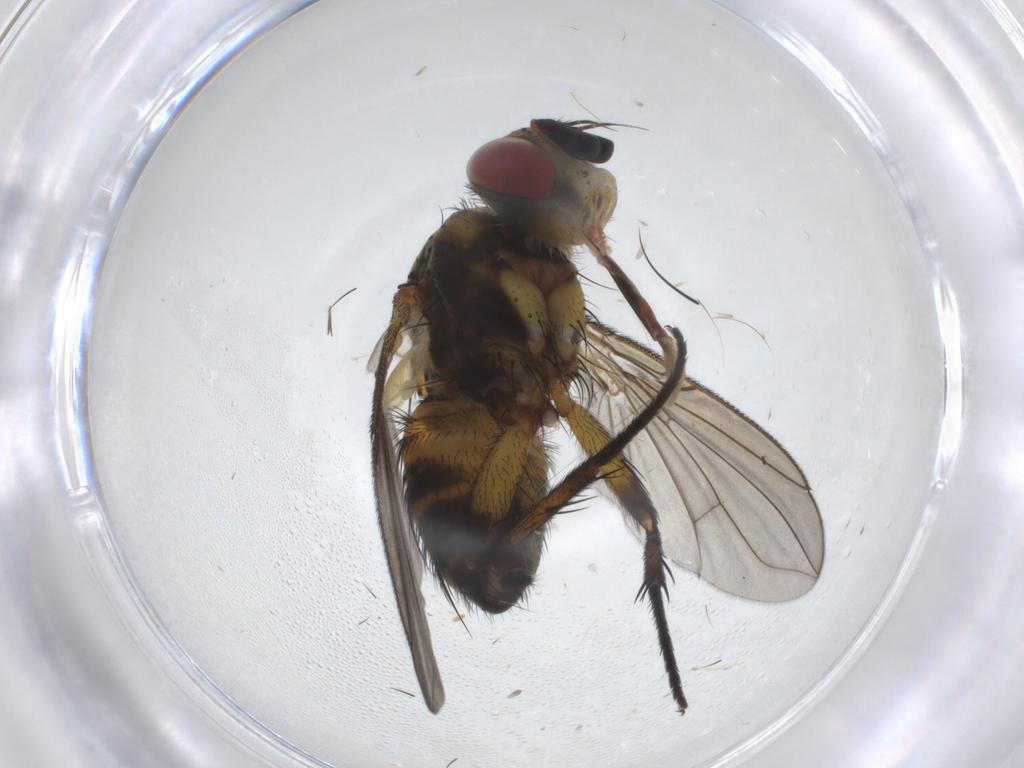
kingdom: Animalia
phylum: Arthropoda
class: Insecta
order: Diptera
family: Tachinidae
